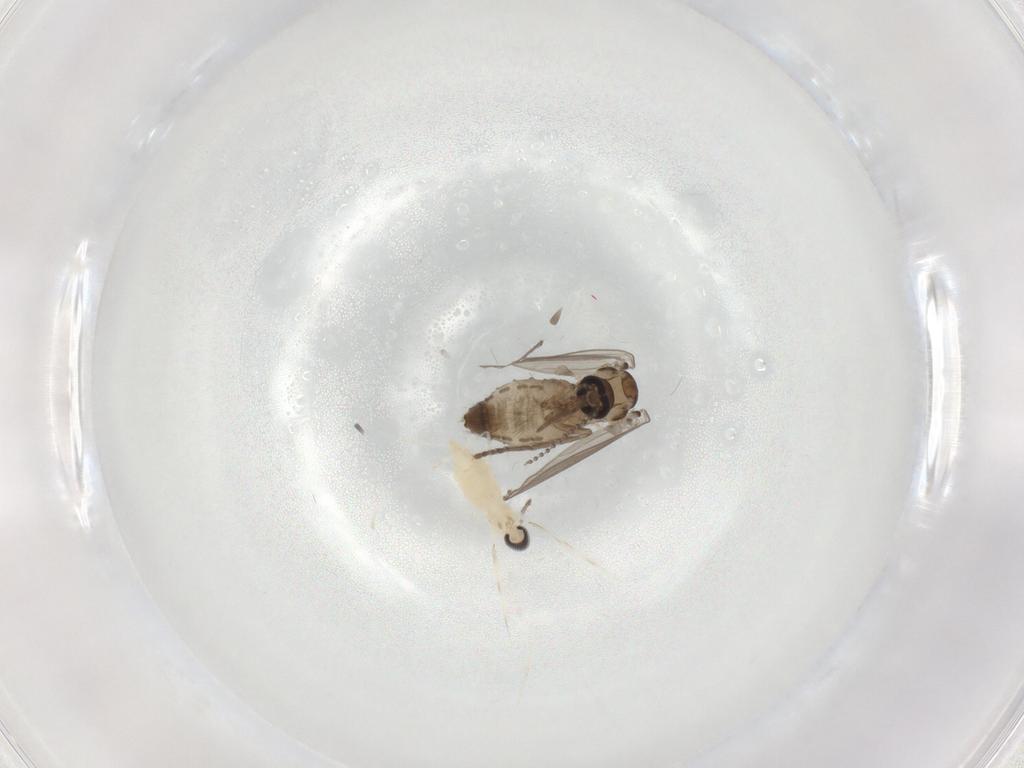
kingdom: Animalia
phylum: Arthropoda
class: Insecta
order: Diptera
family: Psychodidae
